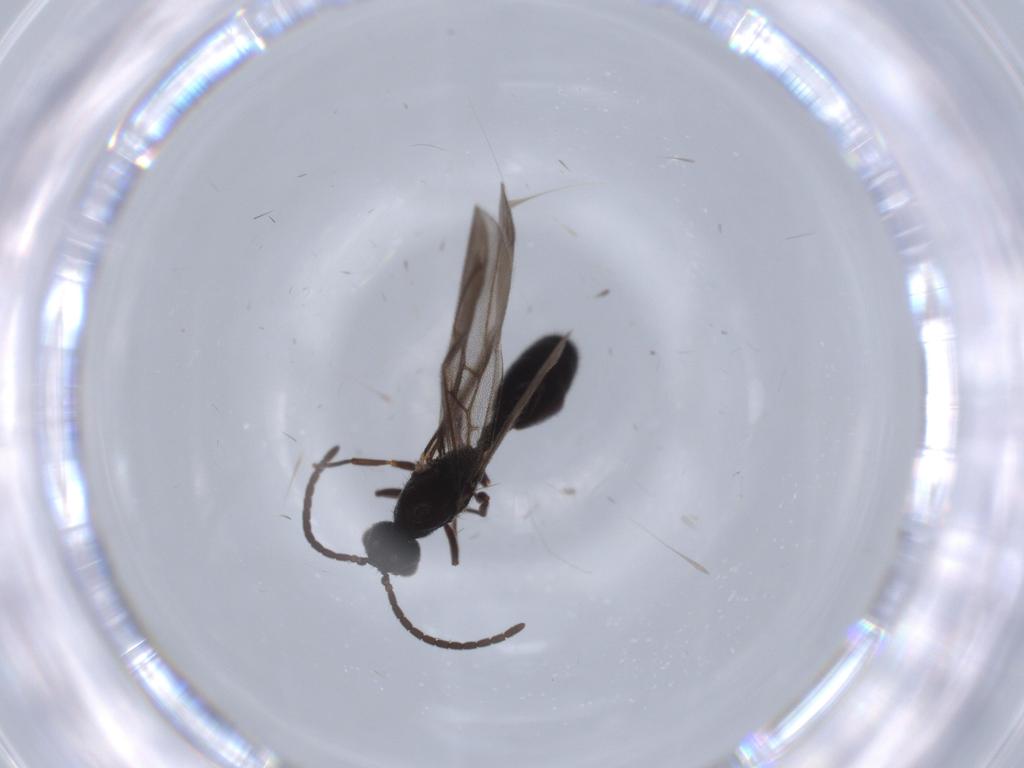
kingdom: Animalia
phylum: Arthropoda
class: Insecta
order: Hymenoptera
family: Formicidae
